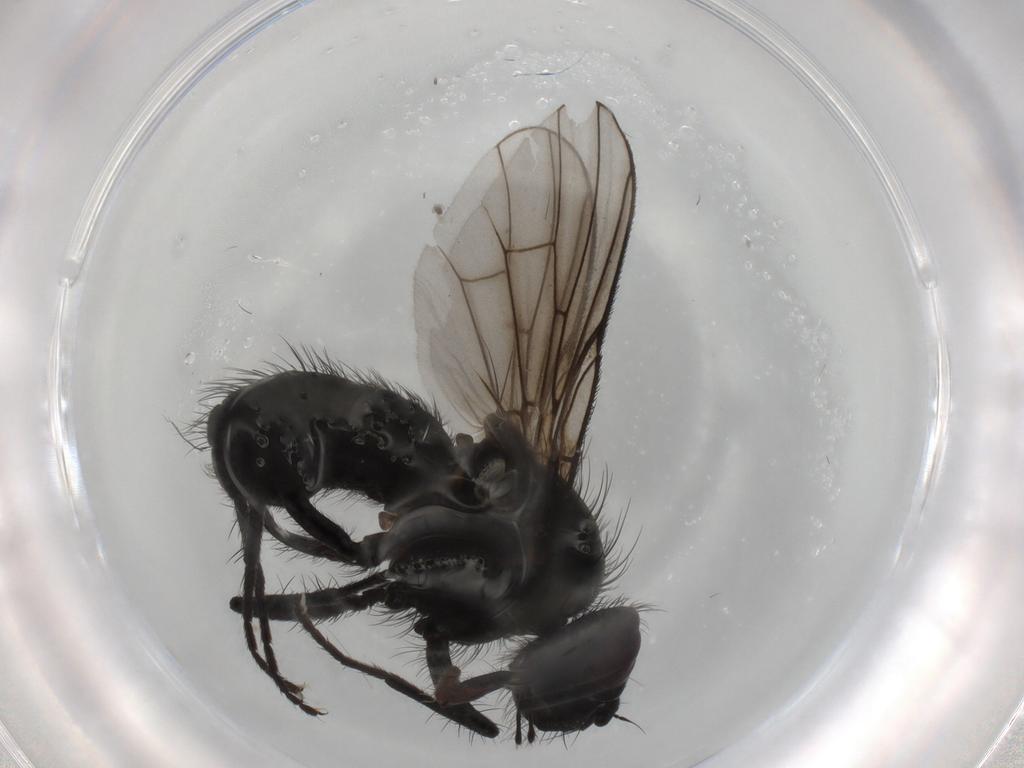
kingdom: Animalia
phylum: Arthropoda
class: Insecta
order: Diptera
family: Muscidae
